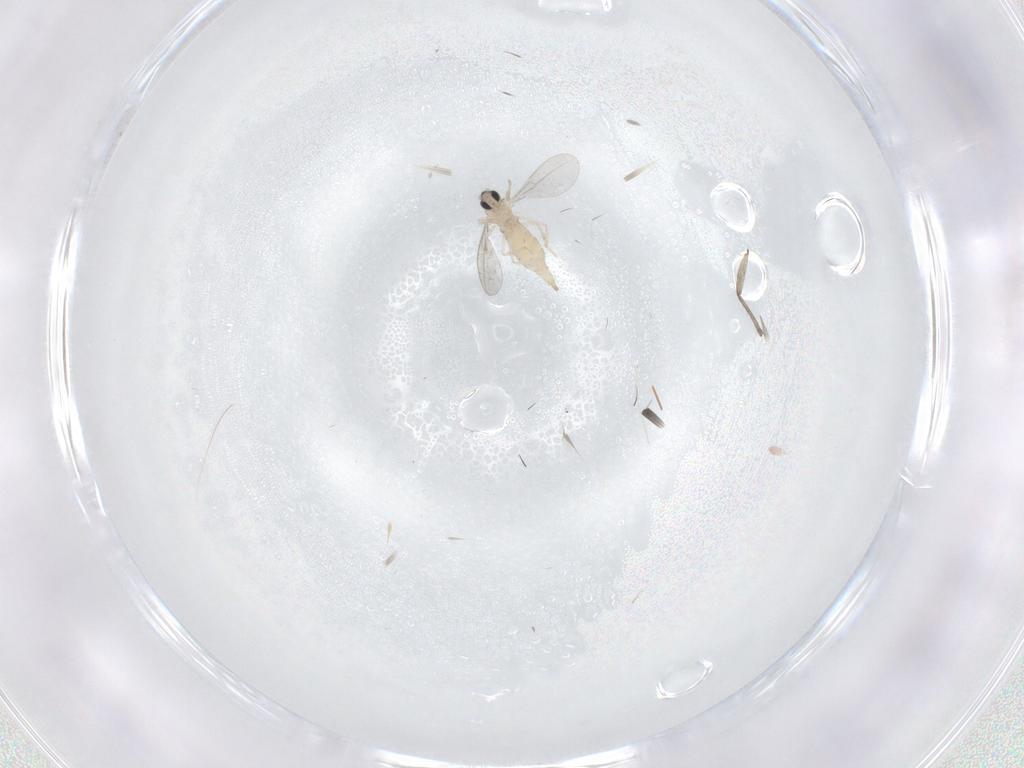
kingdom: Animalia
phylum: Arthropoda
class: Insecta
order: Diptera
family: Cecidomyiidae
